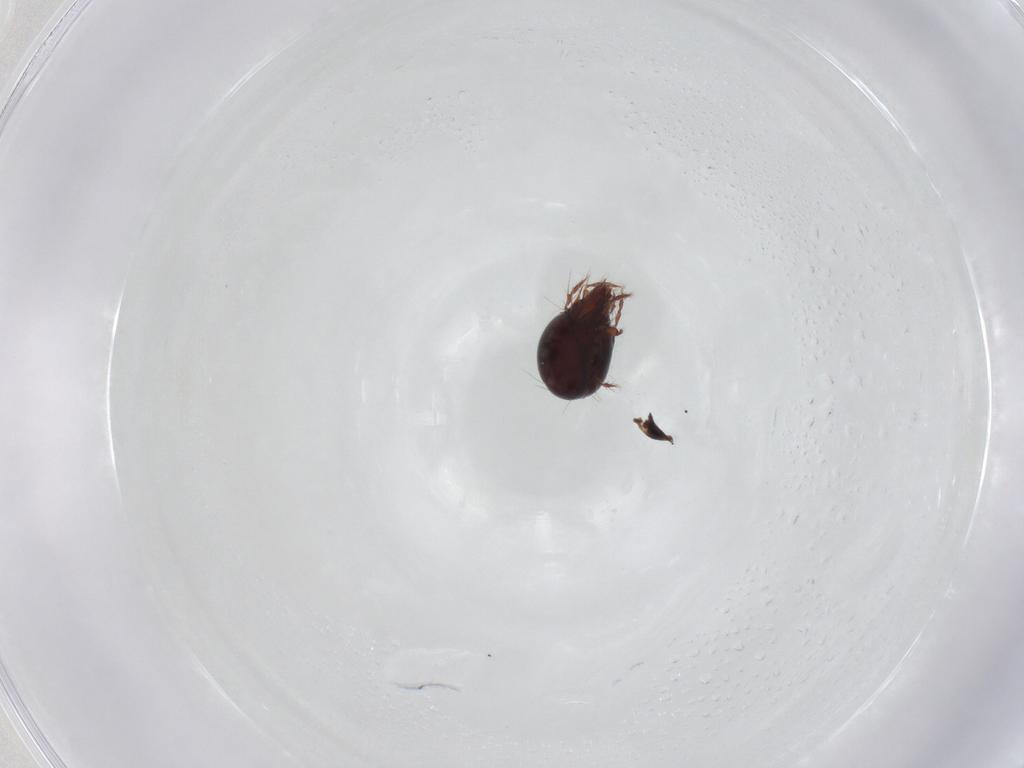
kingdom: Animalia
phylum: Arthropoda
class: Arachnida
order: Sarcoptiformes
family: Ceratoppiidae
